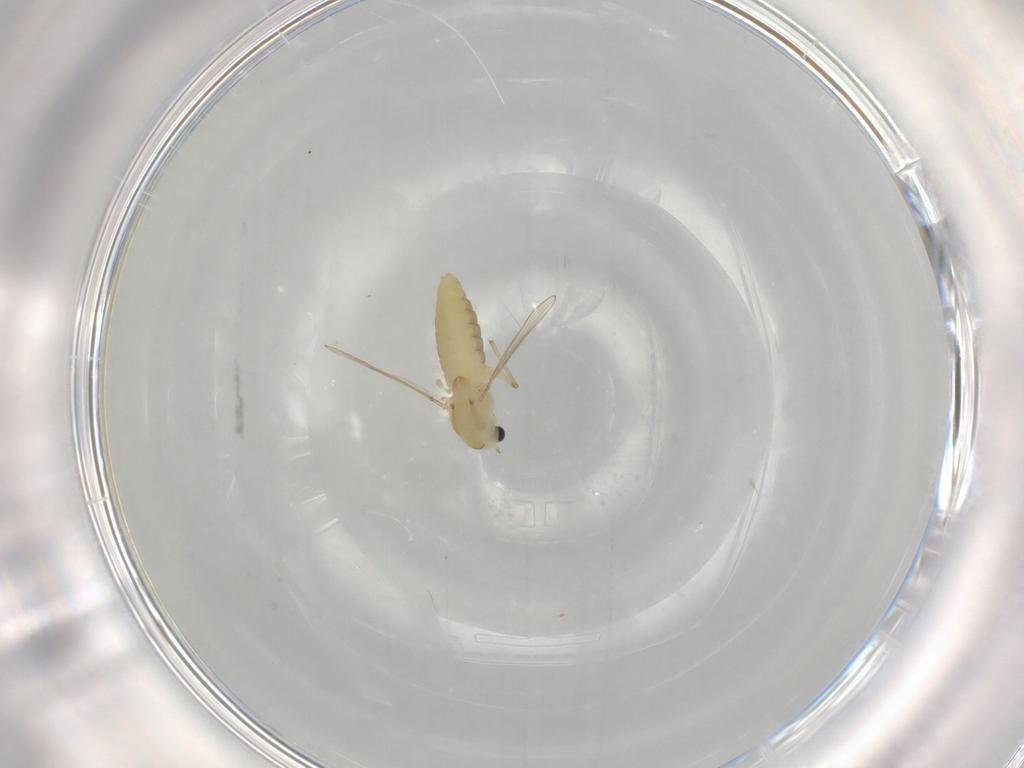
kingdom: Animalia
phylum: Arthropoda
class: Insecta
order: Diptera
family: Chironomidae
